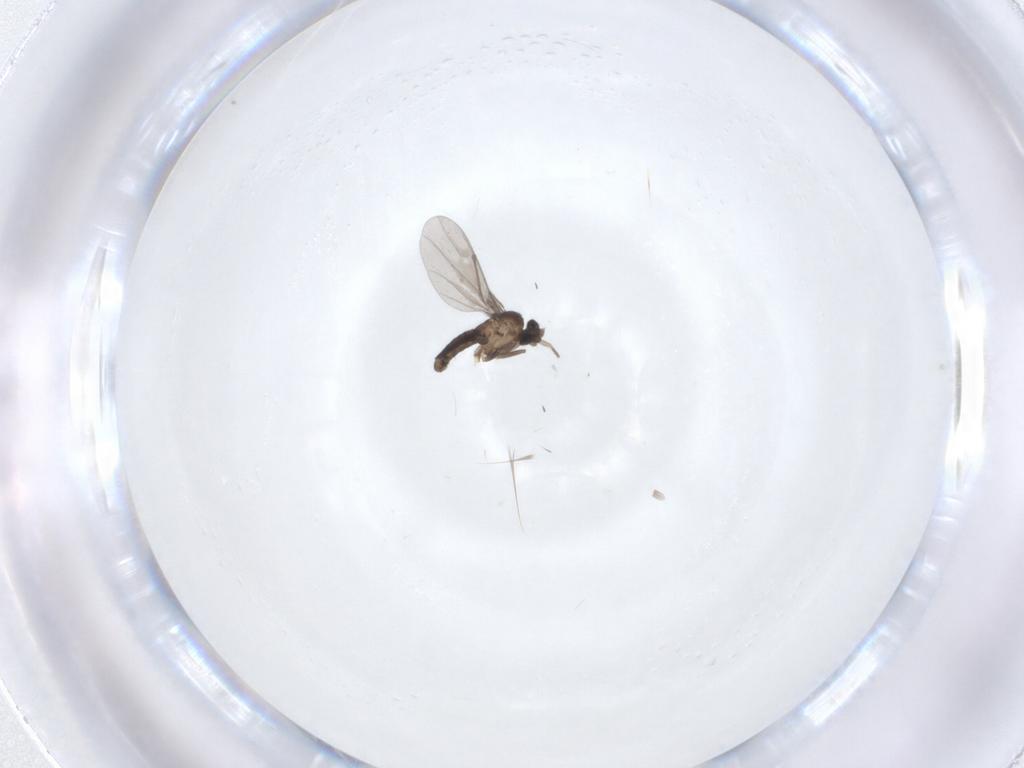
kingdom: Animalia
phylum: Arthropoda
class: Insecta
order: Diptera
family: Phoridae
